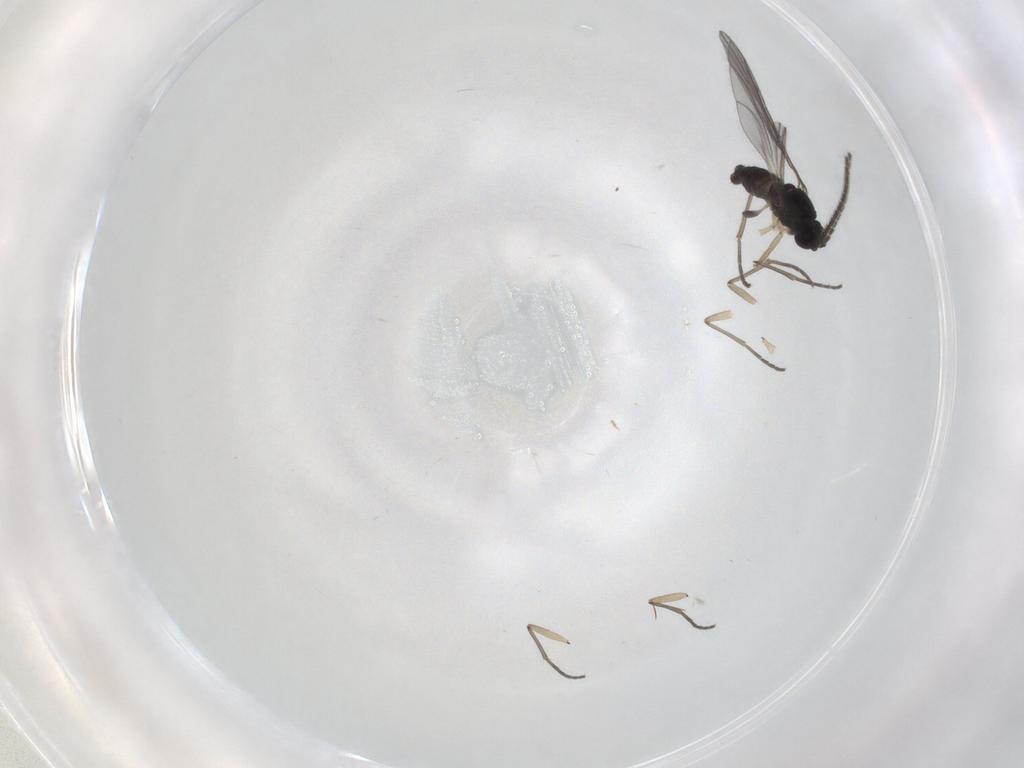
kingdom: Animalia
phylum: Arthropoda
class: Insecta
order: Diptera
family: Sciaridae
